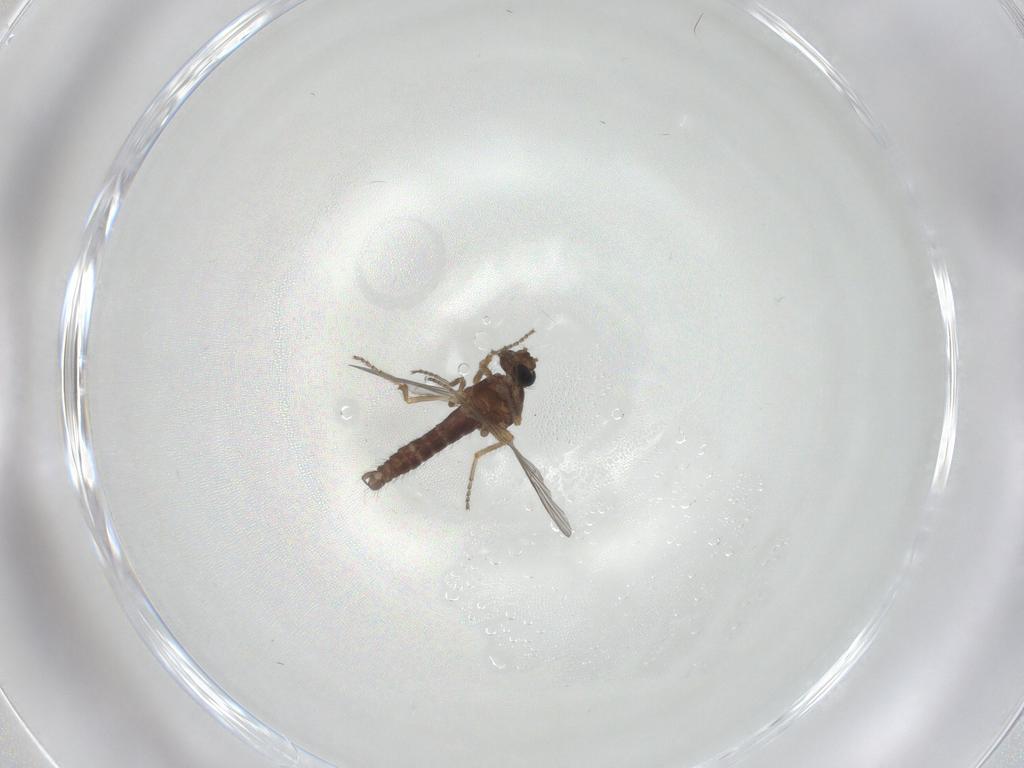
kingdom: Animalia
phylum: Arthropoda
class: Insecta
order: Diptera
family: Ceratopogonidae
